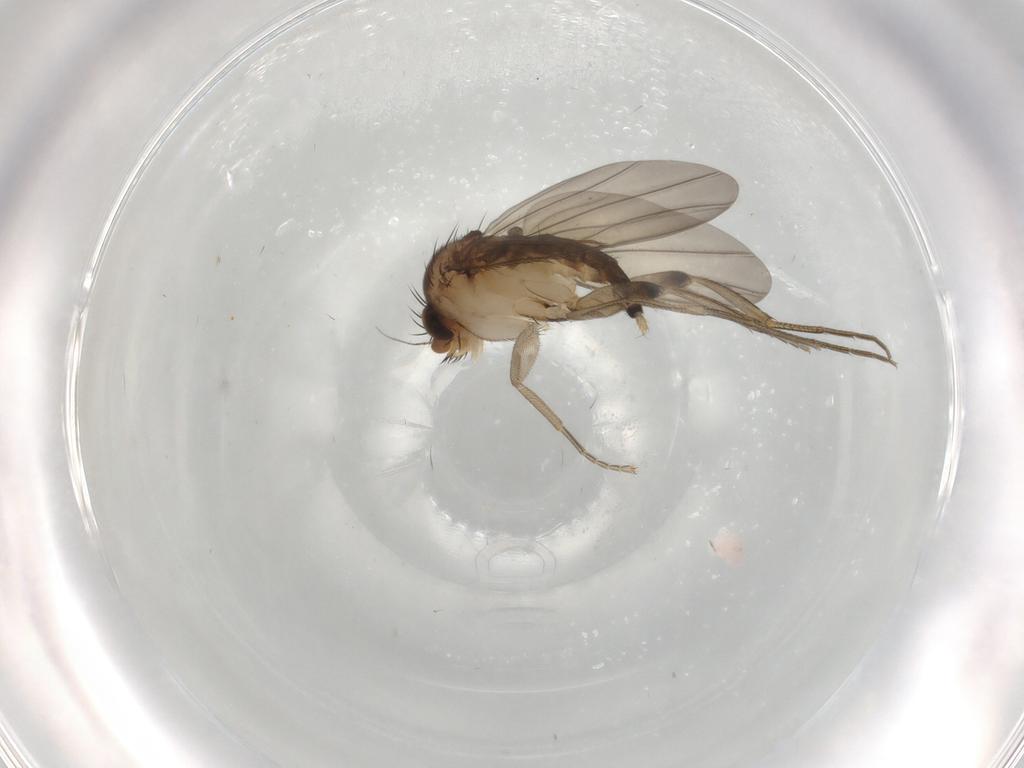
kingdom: Animalia
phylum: Arthropoda
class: Insecta
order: Diptera
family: Phoridae
